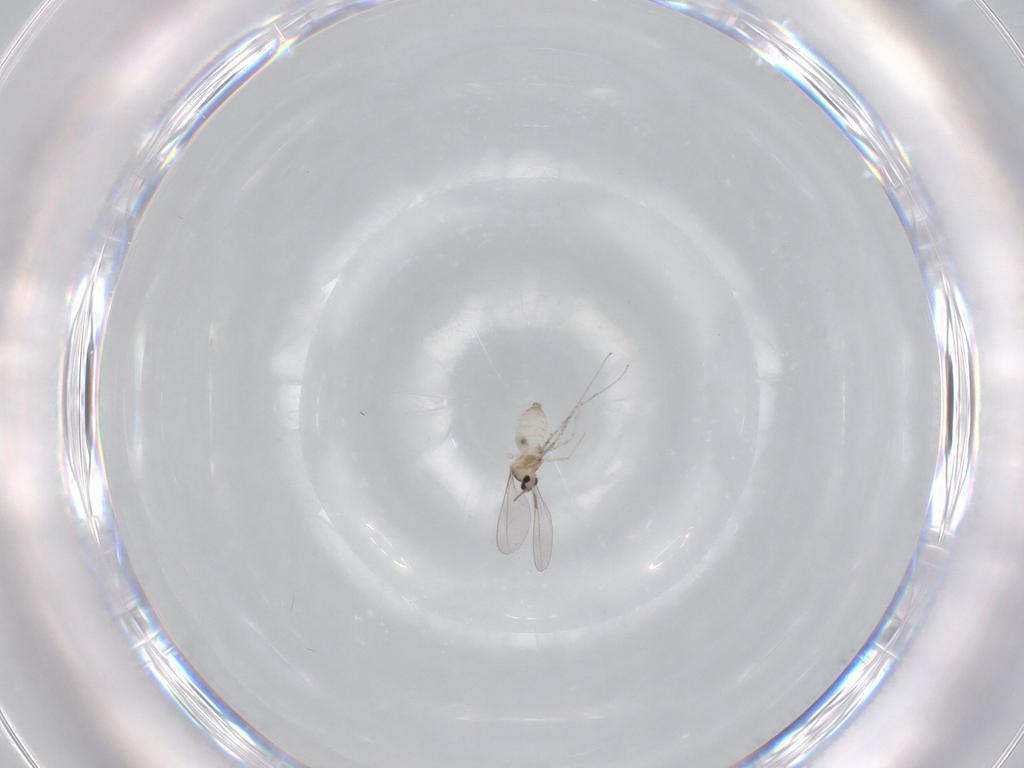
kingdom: Animalia
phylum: Arthropoda
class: Insecta
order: Diptera
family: Cecidomyiidae
